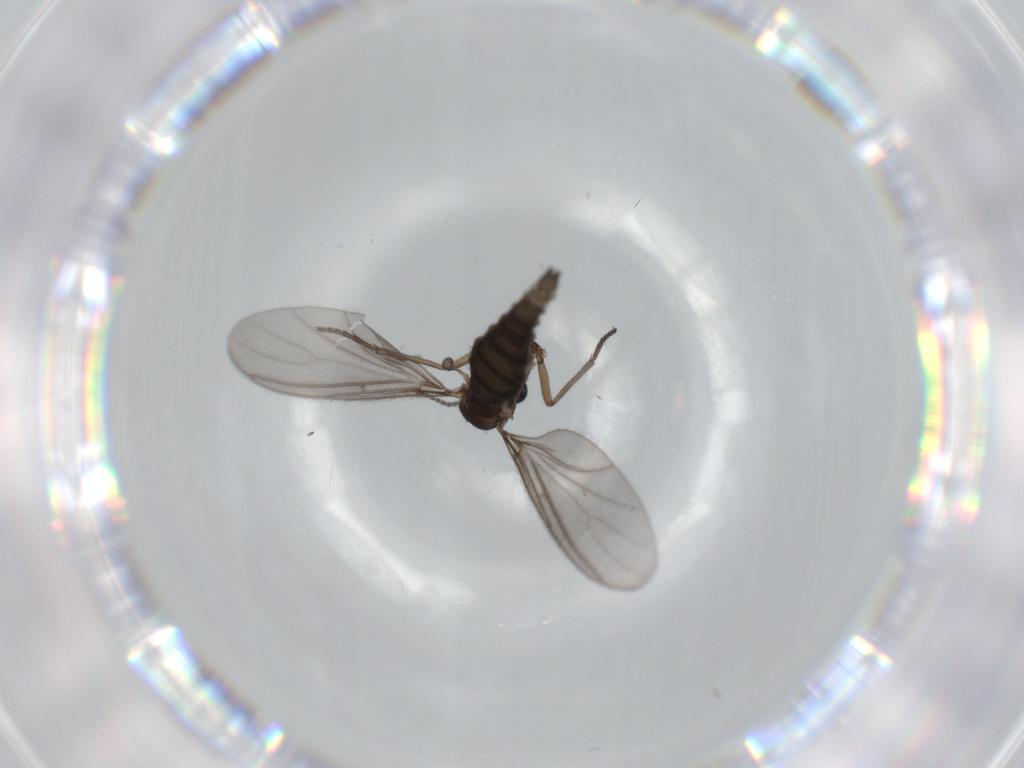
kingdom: Animalia
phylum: Arthropoda
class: Insecta
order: Diptera
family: Sciaridae
